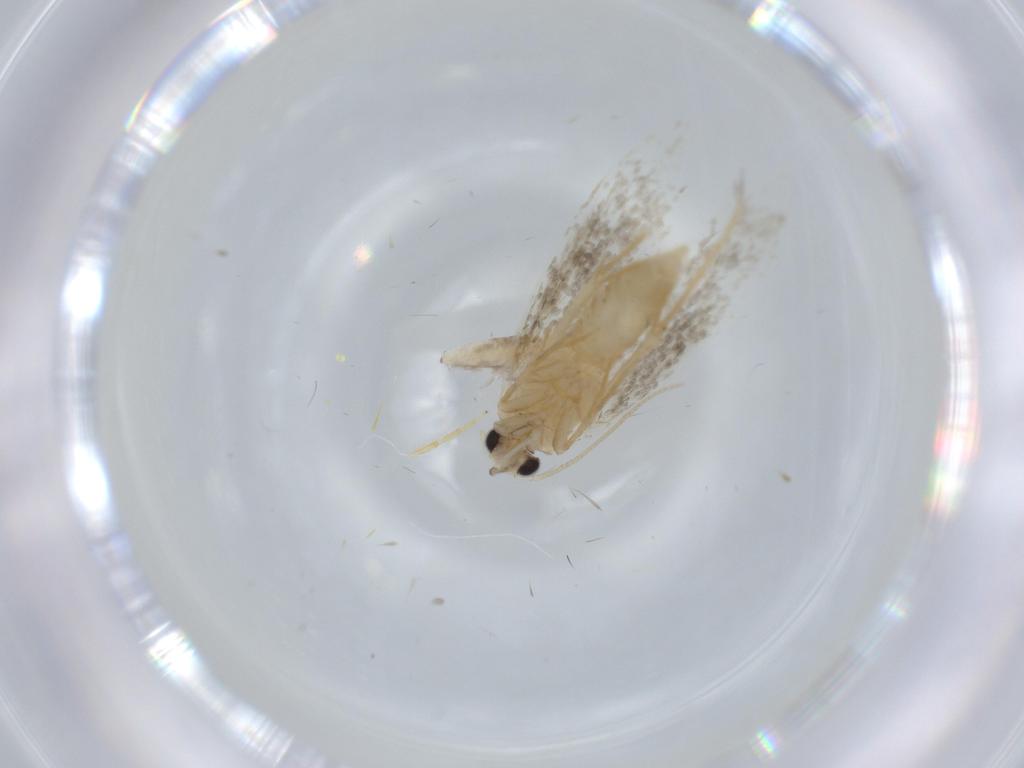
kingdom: Animalia
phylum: Arthropoda
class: Insecta
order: Lepidoptera
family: Tineidae
